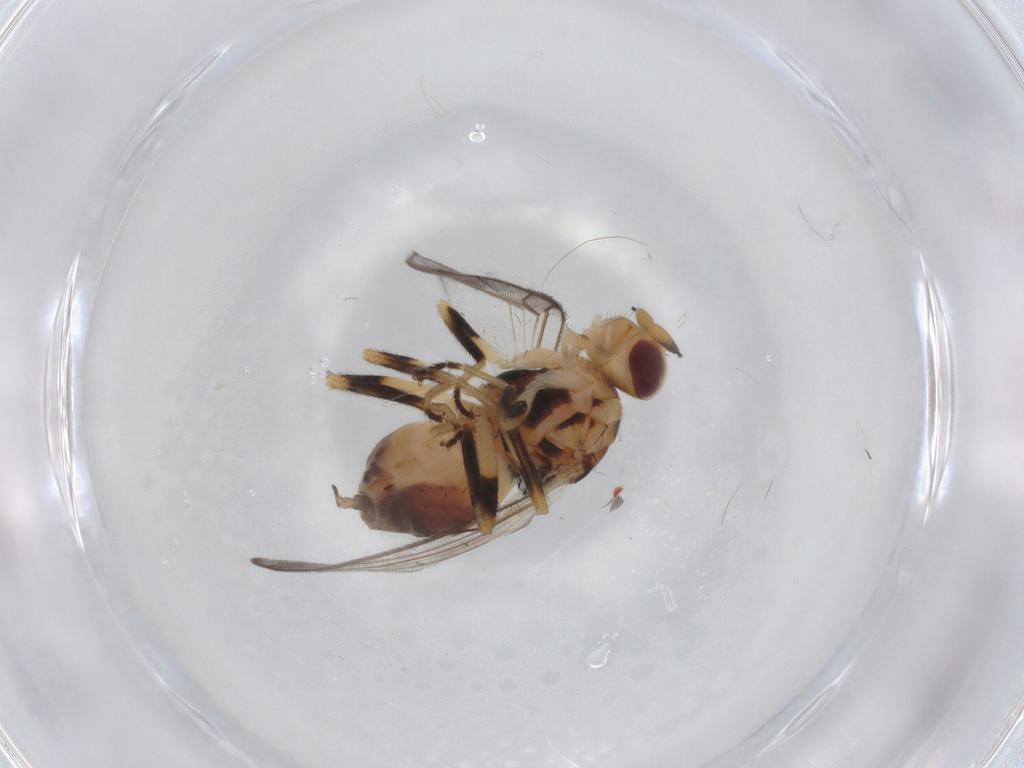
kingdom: Animalia
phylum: Arthropoda
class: Insecta
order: Diptera
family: Chloropidae
